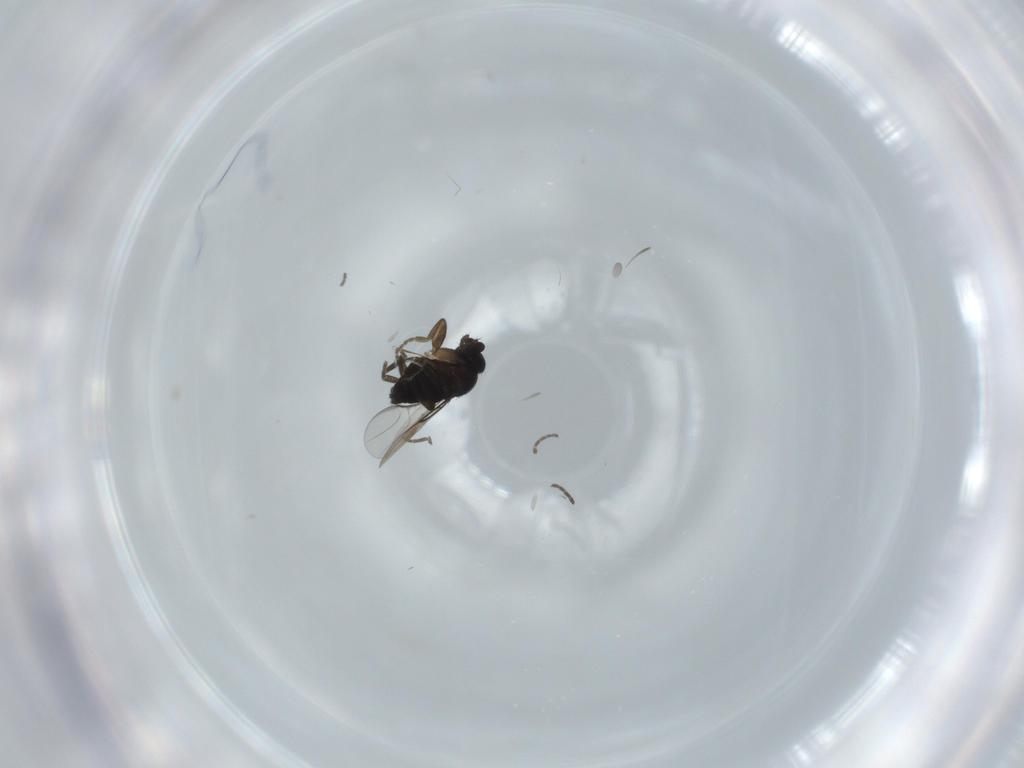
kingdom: Animalia
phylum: Arthropoda
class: Insecta
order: Diptera
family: Phoridae
